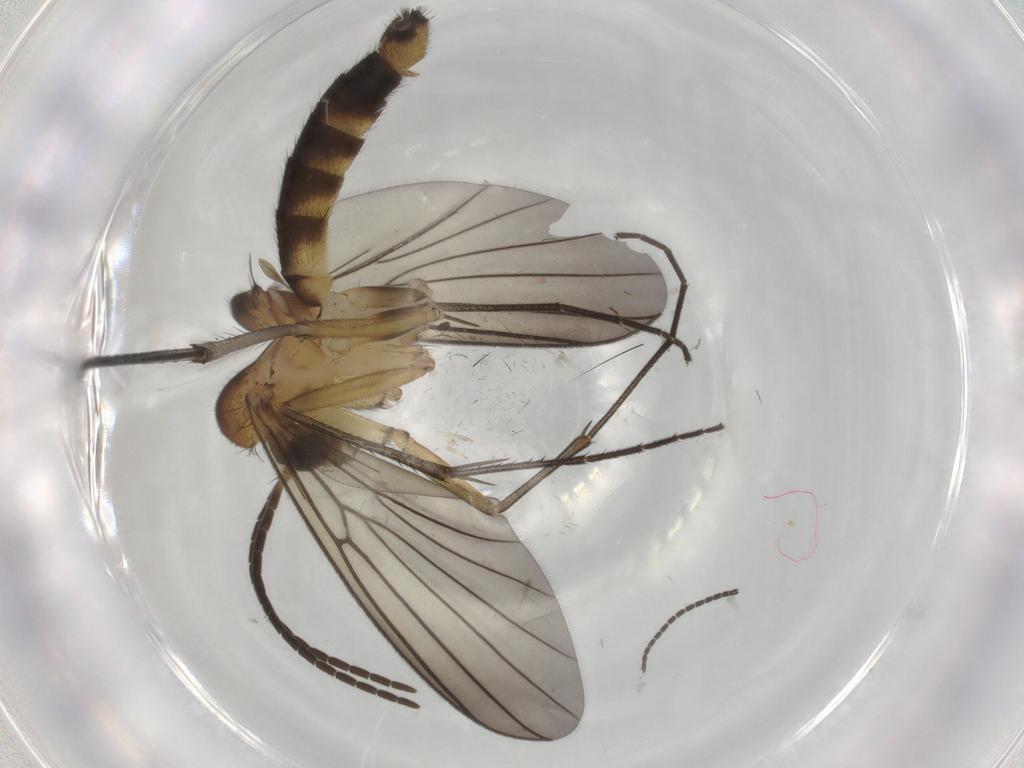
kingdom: Animalia
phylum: Arthropoda
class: Insecta
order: Diptera
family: Mycetophilidae
